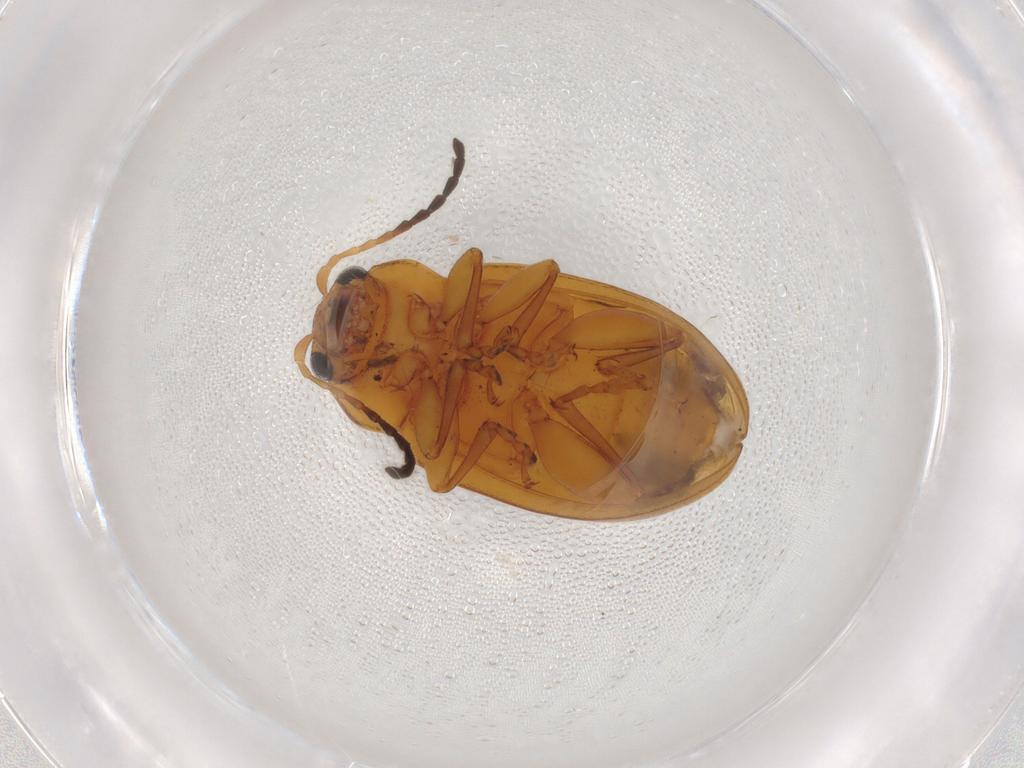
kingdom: Animalia
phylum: Arthropoda
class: Insecta
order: Coleoptera
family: Chrysomelidae
